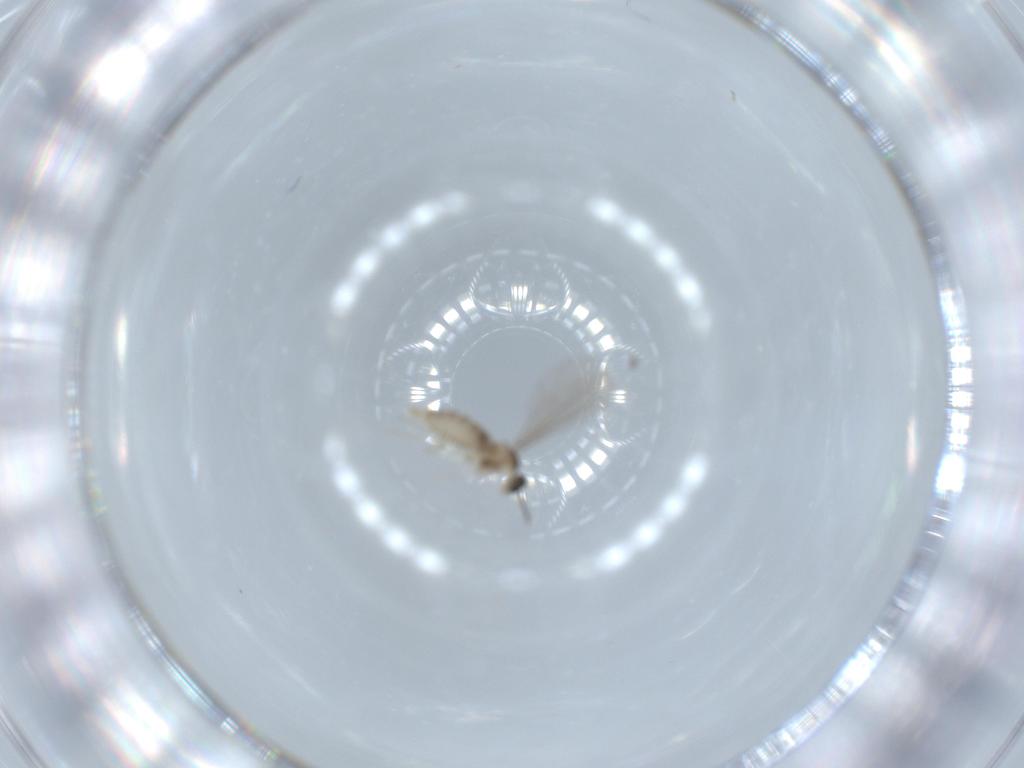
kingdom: Animalia
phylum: Arthropoda
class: Insecta
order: Diptera
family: Cecidomyiidae
